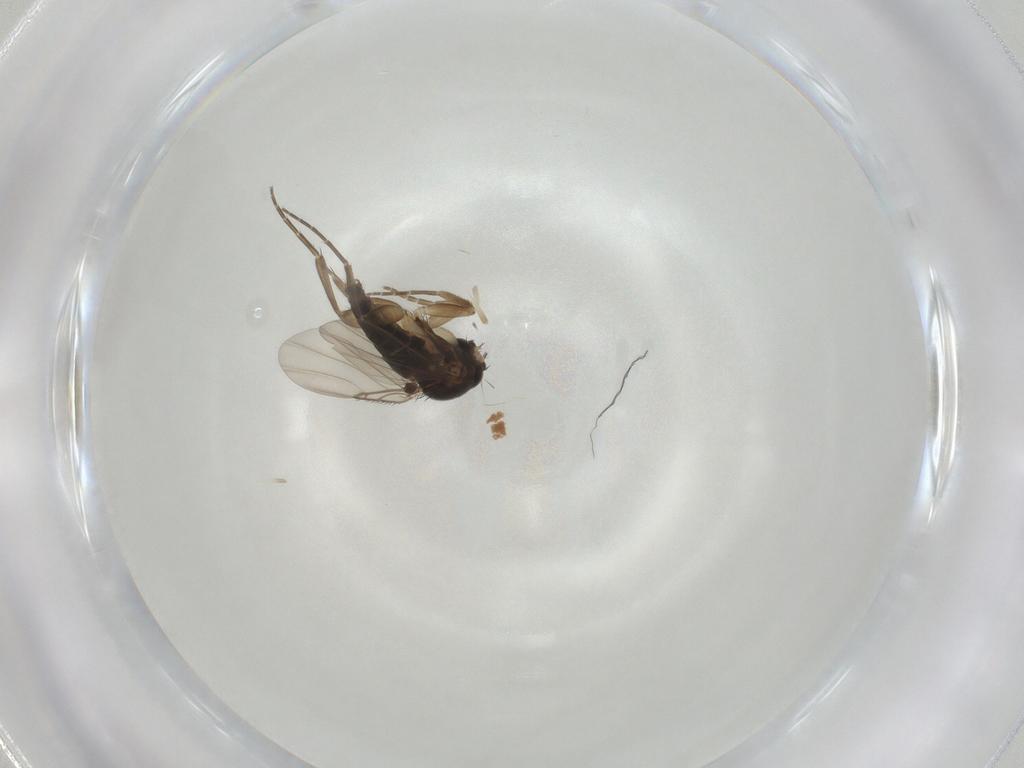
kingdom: Animalia
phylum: Arthropoda
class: Insecta
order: Diptera
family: Phoridae
